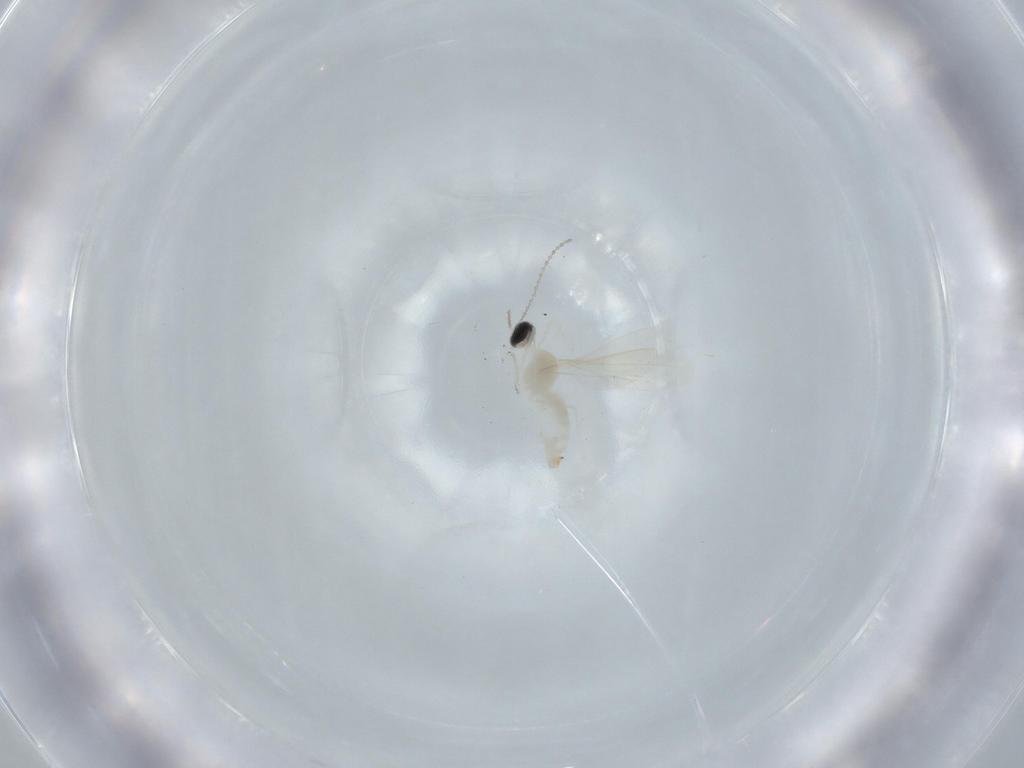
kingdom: Animalia
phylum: Arthropoda
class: Insecta
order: Diptera
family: Cecidomyiidae
